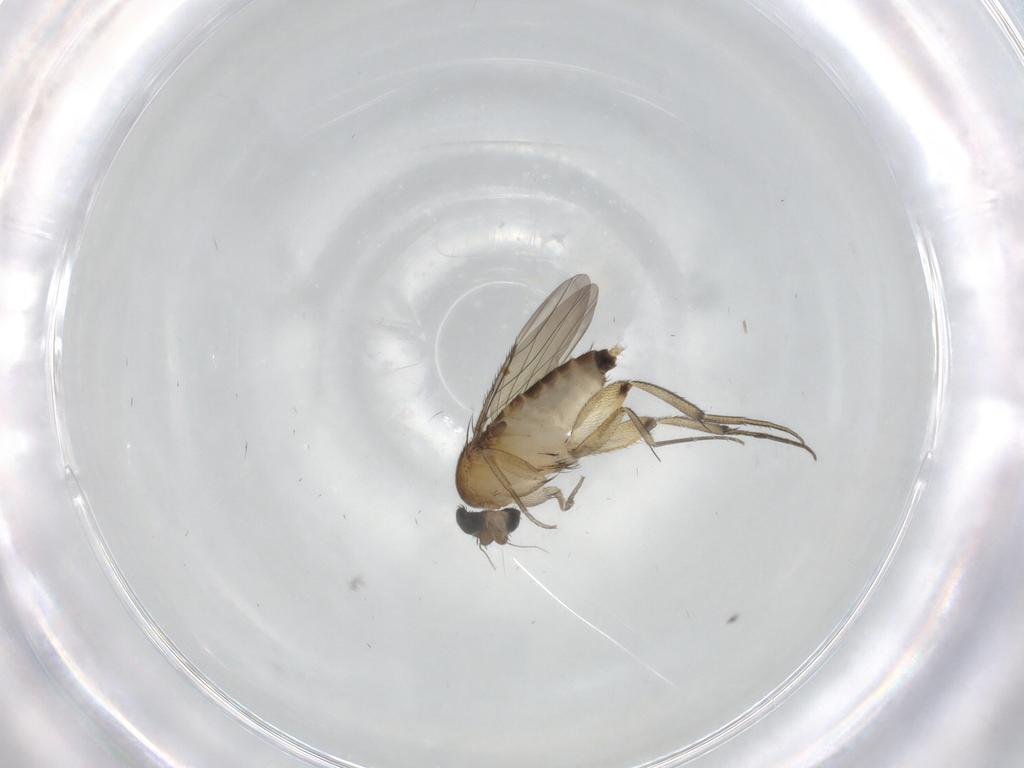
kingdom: Animalia
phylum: Arthropoda
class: Insecta
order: Diptera
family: Phoridae
